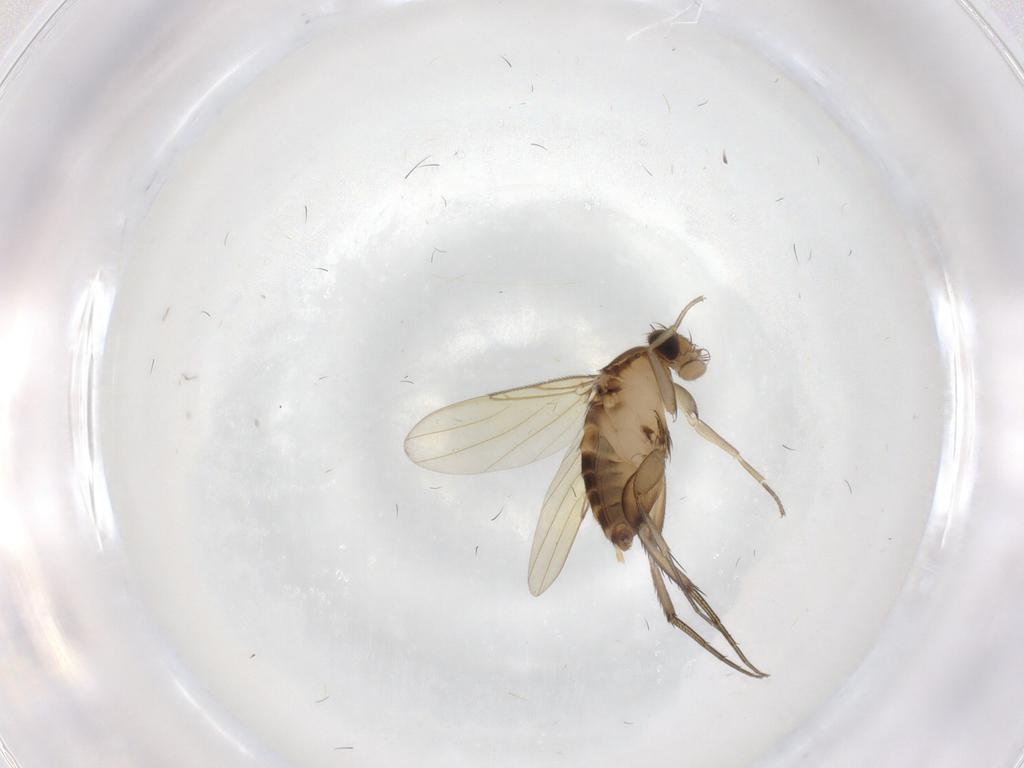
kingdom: Animalia
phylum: Arthropoda
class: Insecta
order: Diptera
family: Phoridae
